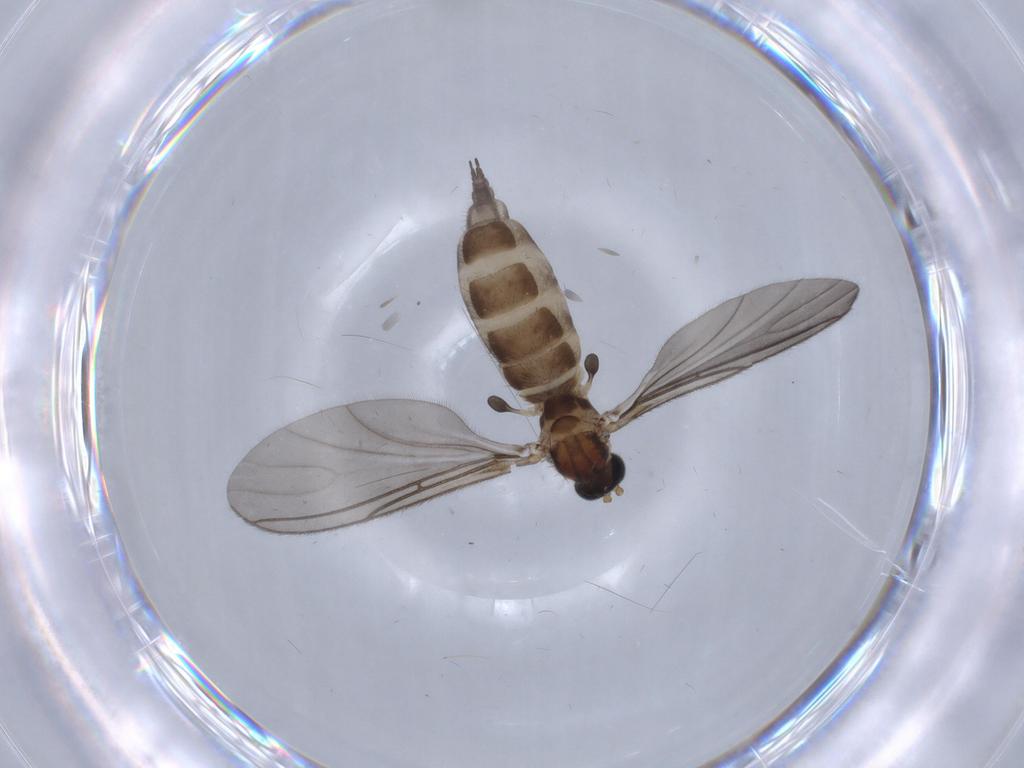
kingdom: Animalia
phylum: Arthropoda
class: Insecta
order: Diptera
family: Sciaridae
